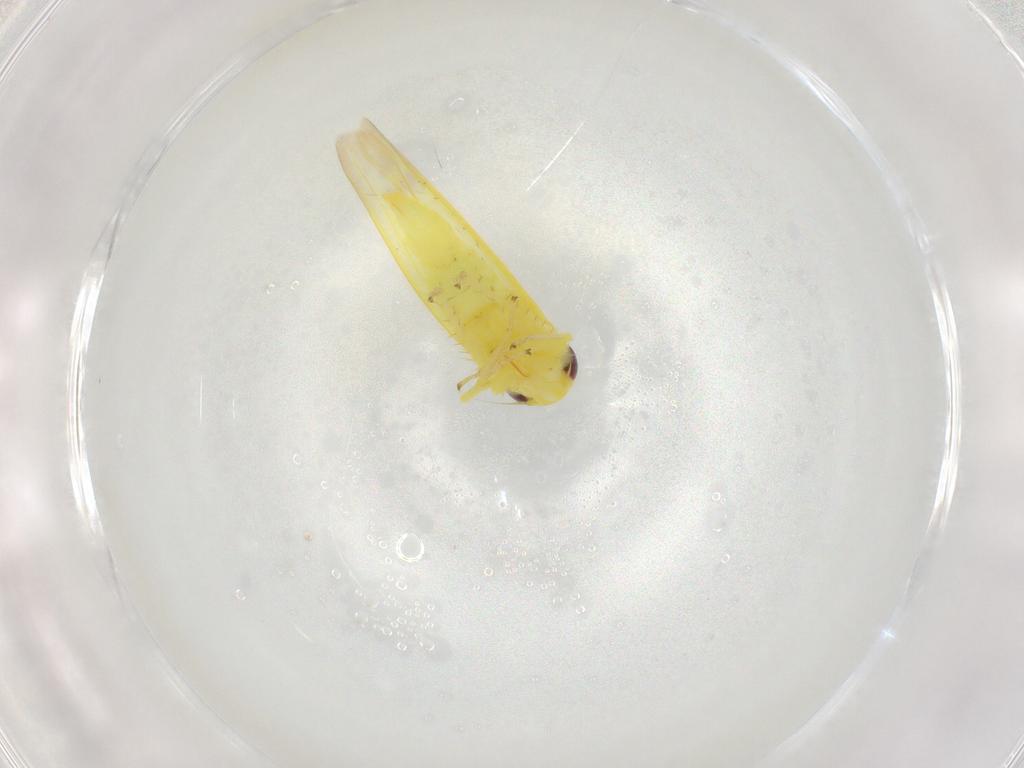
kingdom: Animalia
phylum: Arthropoda
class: Insecta
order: Hemiptera
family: Cicadellidae
